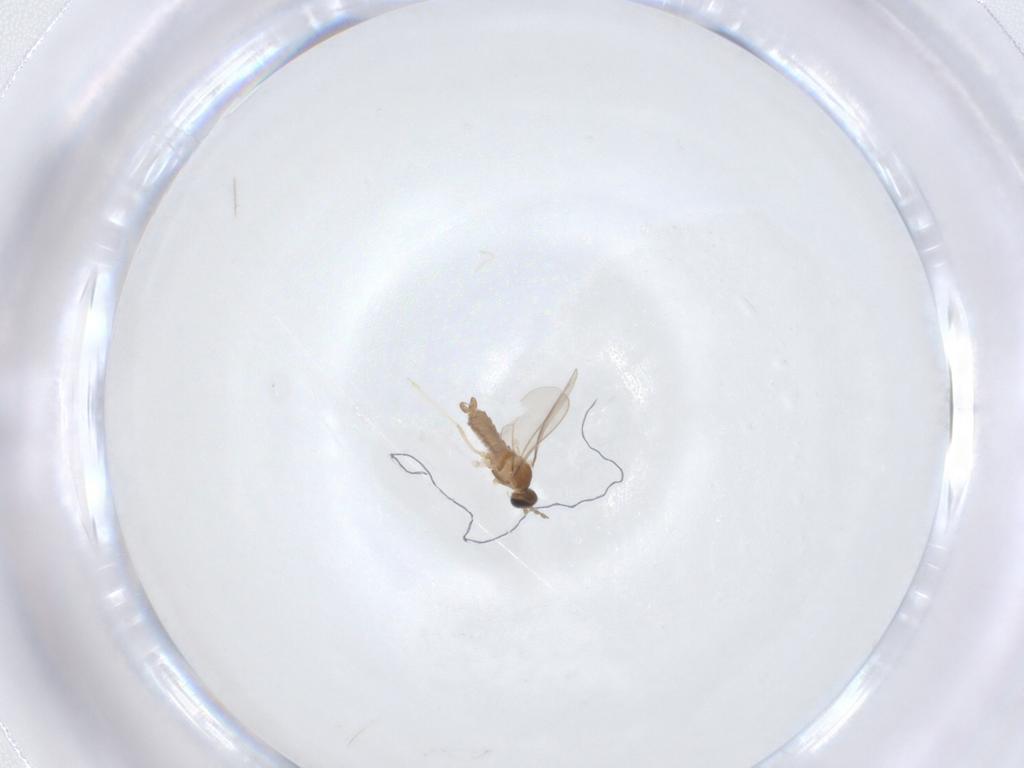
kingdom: Animalia
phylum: Arthropoda
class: Insecta
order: Diptera
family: Cecidomyiidae
